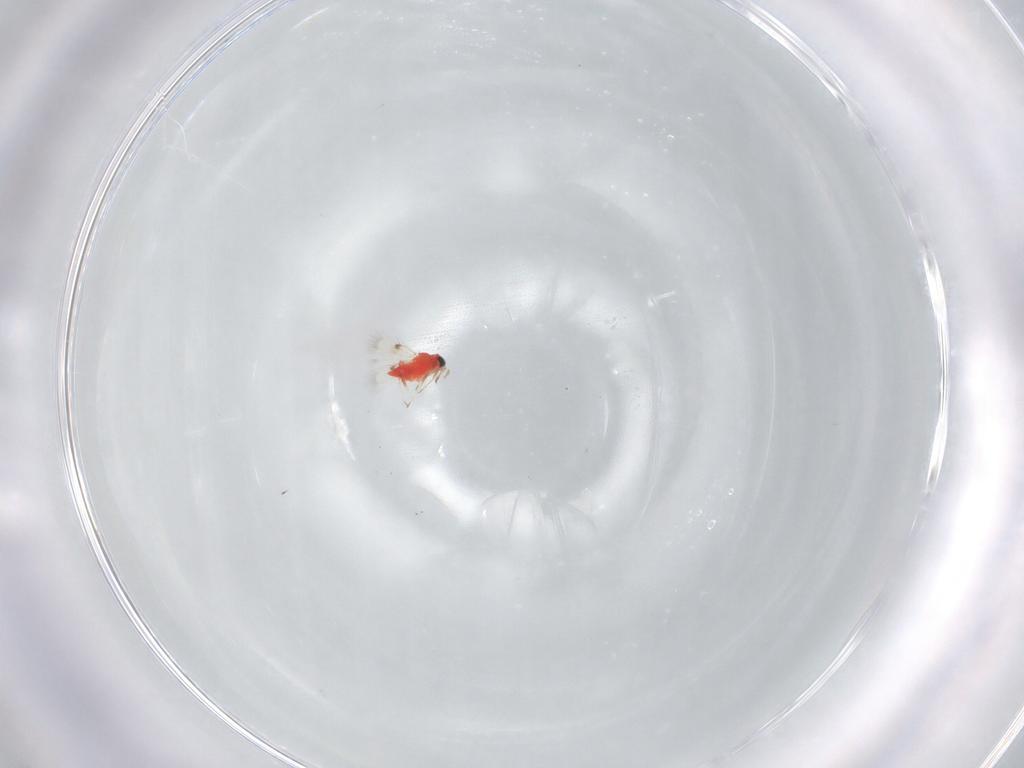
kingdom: Animalia
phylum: Arthropoda
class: Insecta
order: Hymenoptera
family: Trichogrammatidae
